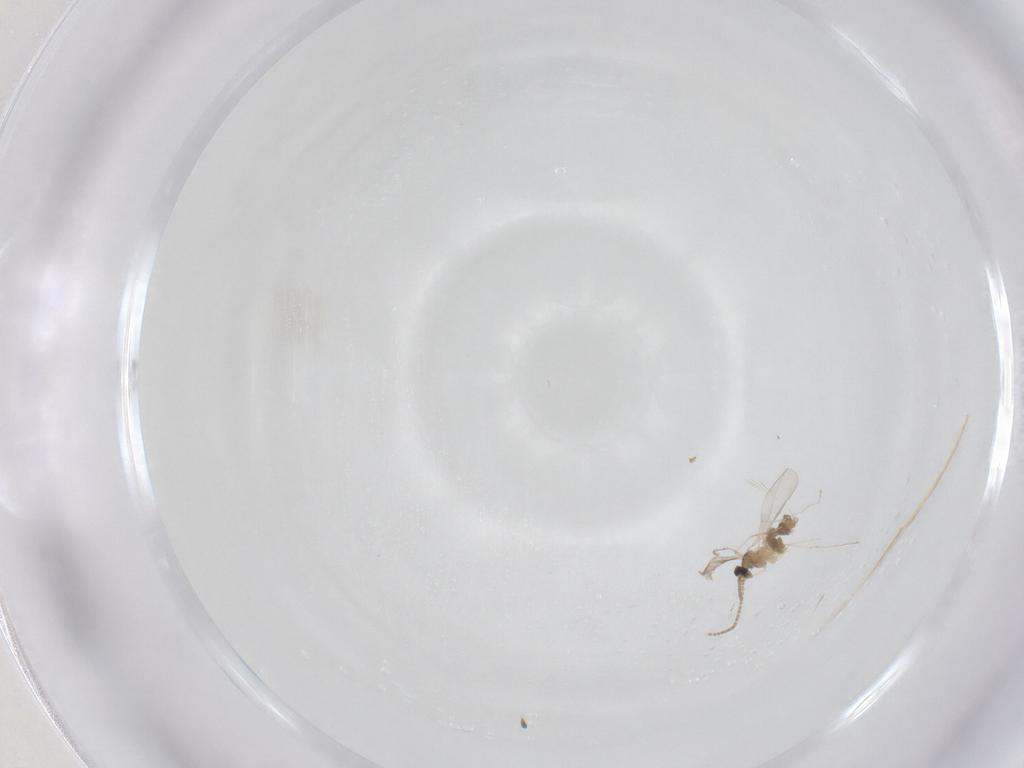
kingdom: Animalia
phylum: Arthropoda
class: Insecta
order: Diptera
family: Cecidomyiidae
